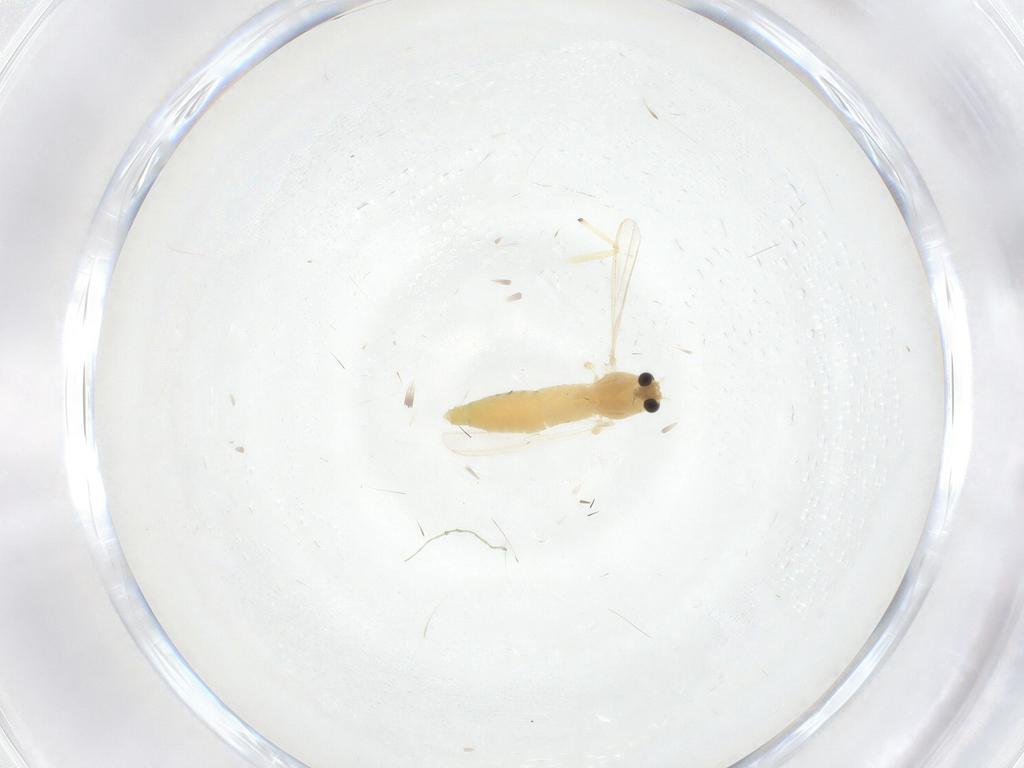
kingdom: Animalia
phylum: Arthropoda
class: Insecta
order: Diptera
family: Chironomidae
